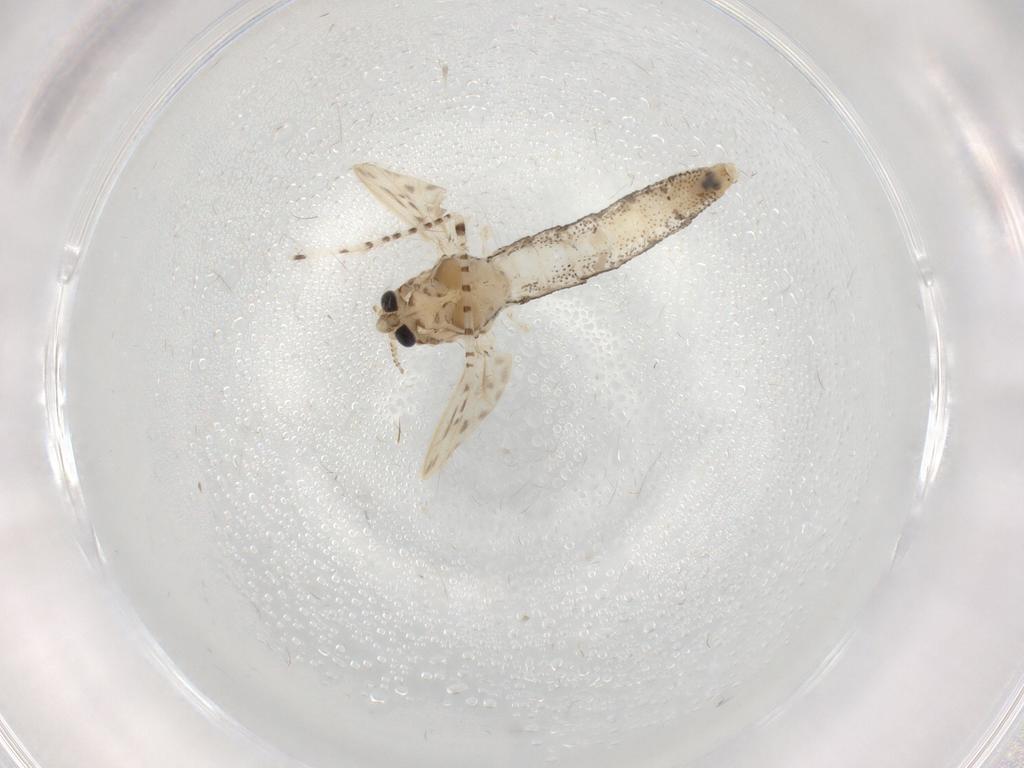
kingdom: Animalia
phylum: Arthropoda
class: Insecta
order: Diptera
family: Chaoboridae
